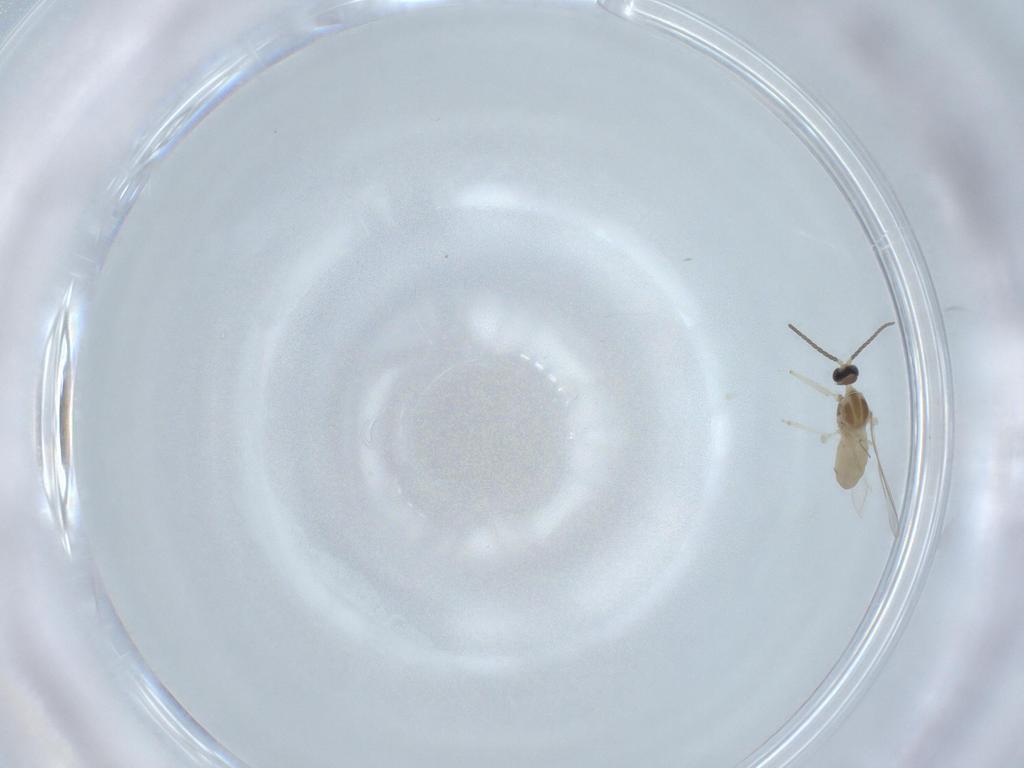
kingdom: Animalia
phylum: Arthropoda
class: Insecta
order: Diptera
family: Cecidomyiidae
